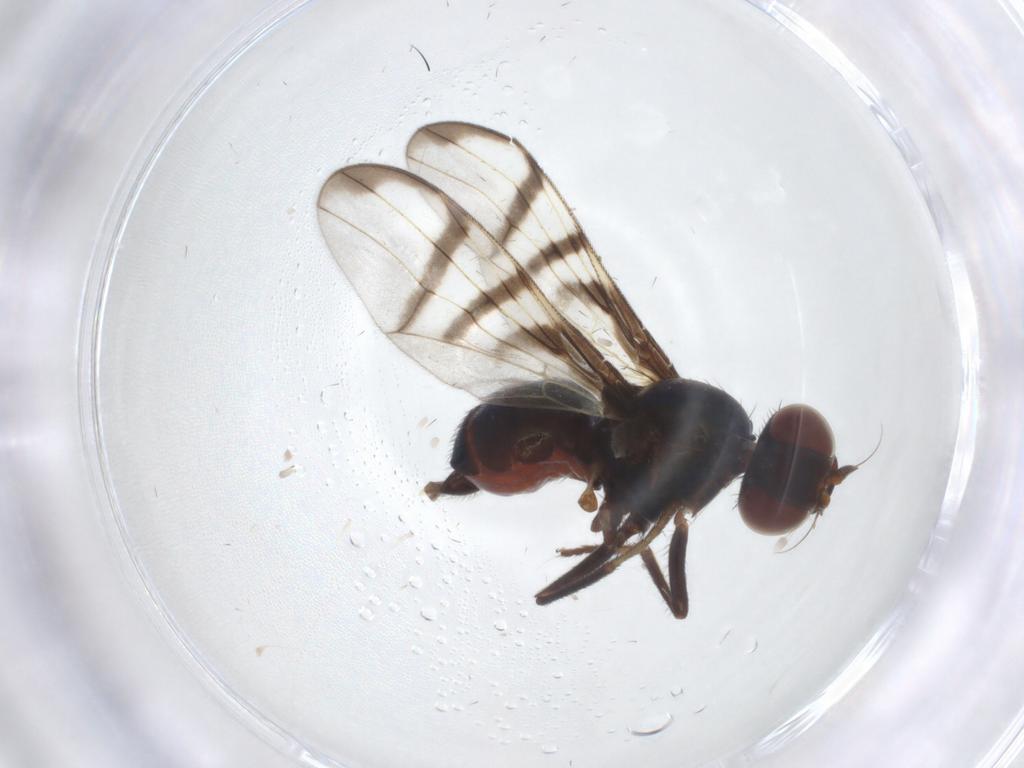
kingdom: Animalia
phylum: Arthropoda
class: Insecta
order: Diptera
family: Platystomatidae
